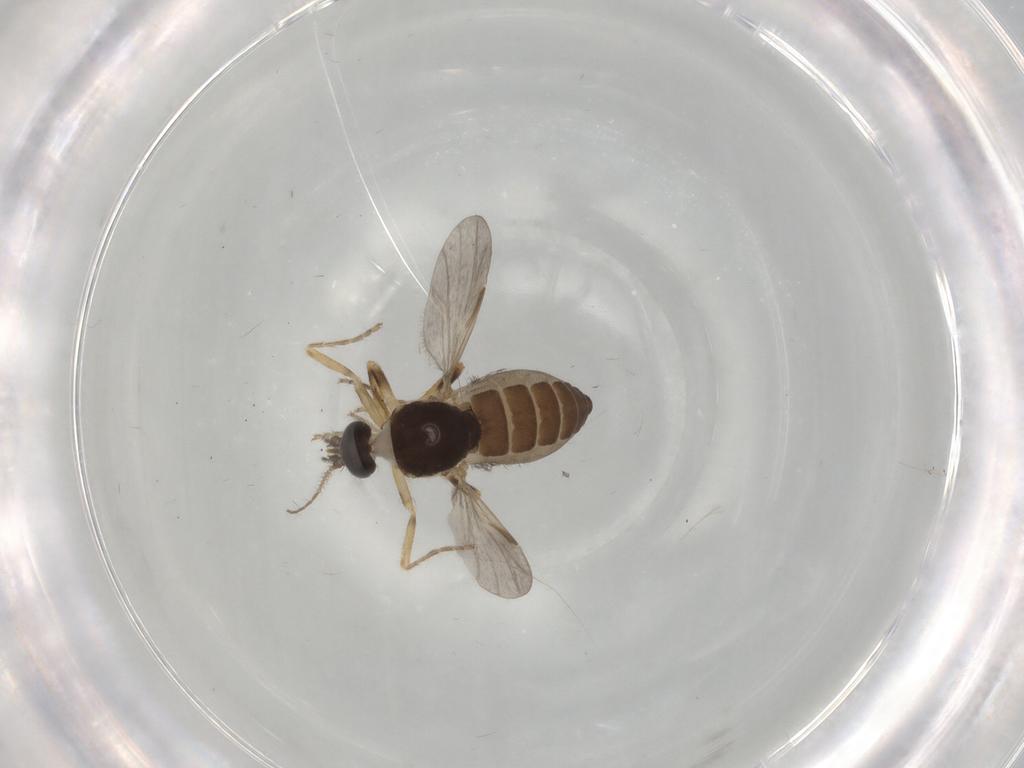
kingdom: Animalia
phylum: Arthropoda
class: Insecta
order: Diptera
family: Ceratopogonidae
